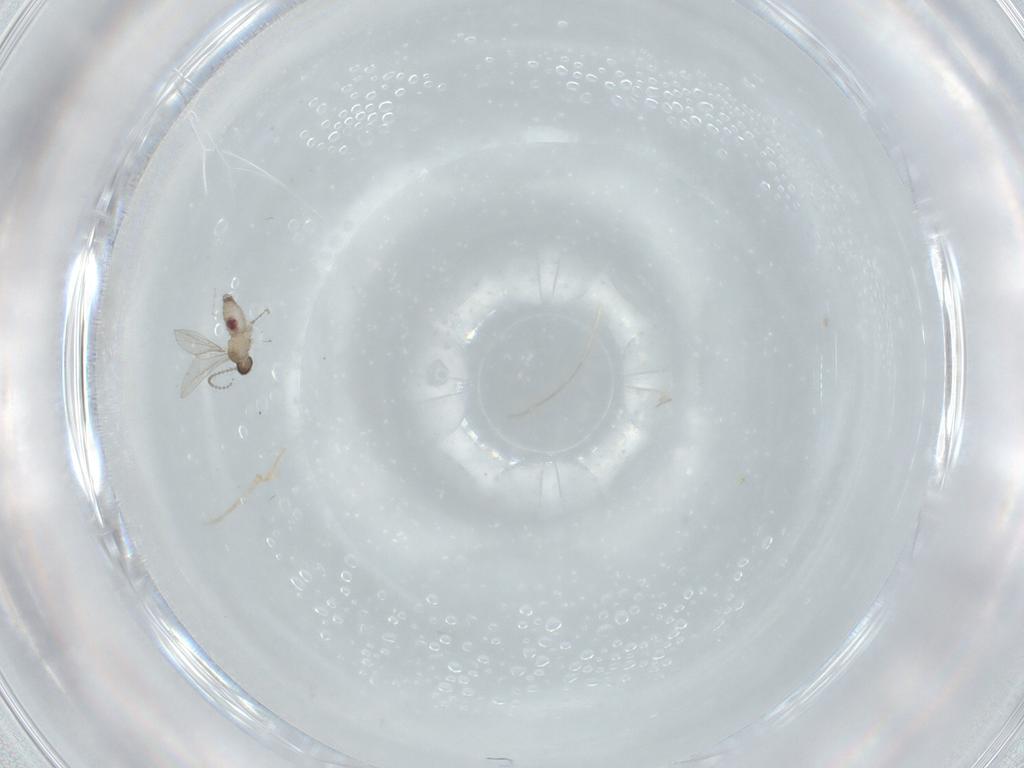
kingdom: Animalia
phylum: Arthropoda
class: Insecta
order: Diptera
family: Cecidomyiidae
